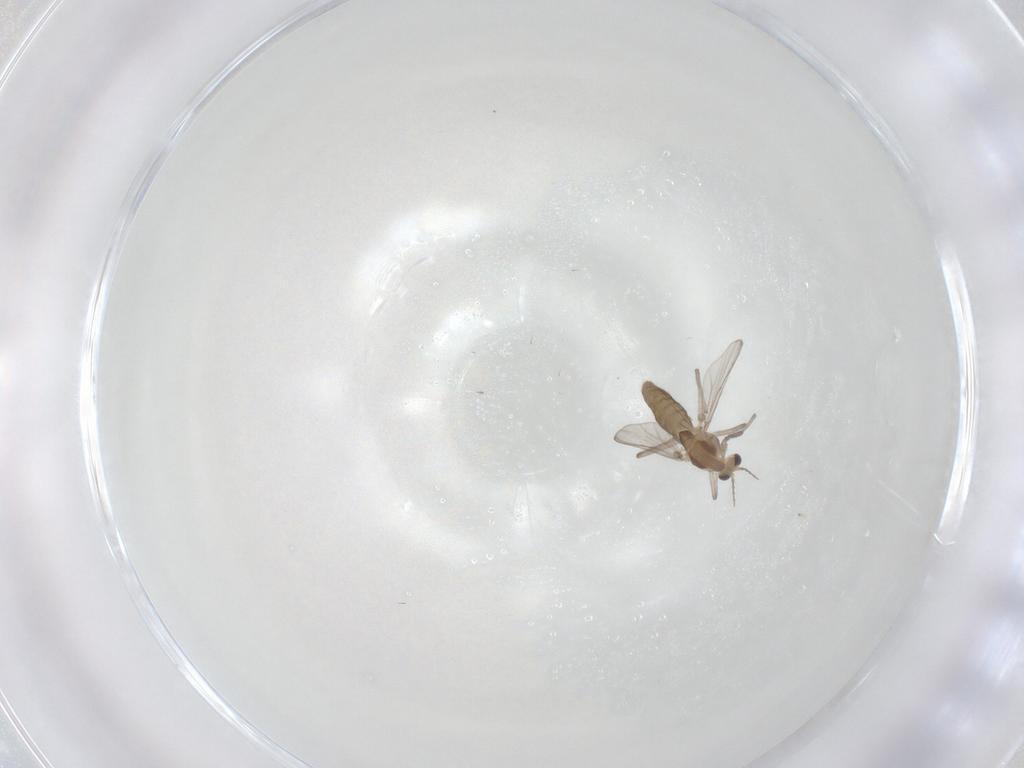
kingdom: Animalia
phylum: Arthropoda
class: Insecta
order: Diptera
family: Chironomidae
